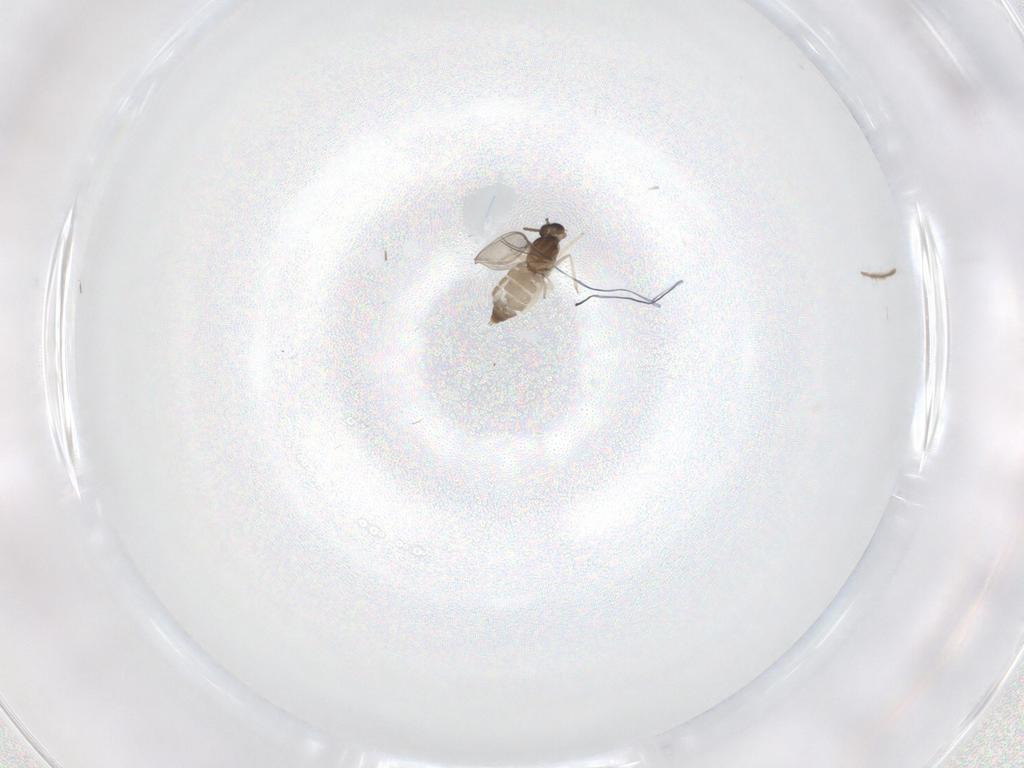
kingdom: Animalia
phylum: Arthropoda
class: Insecta
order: Diptera
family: Cecidomyiidae
